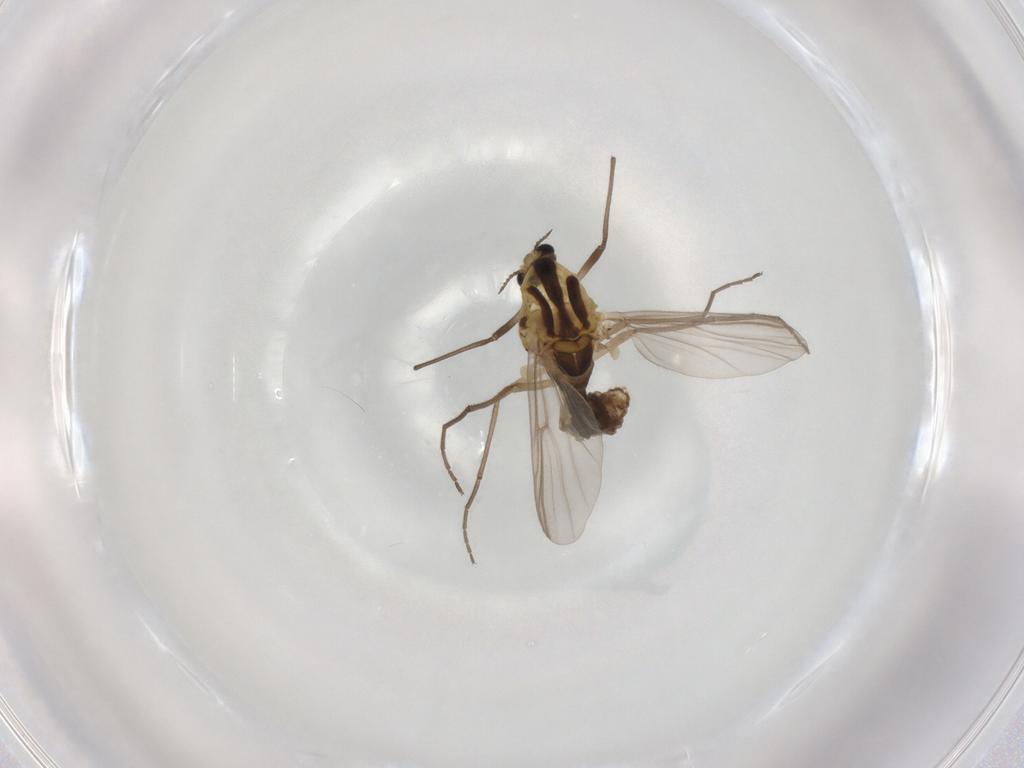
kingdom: Animalia
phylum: Arthropoda
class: Insecta
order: Diptera
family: Chironomidae
